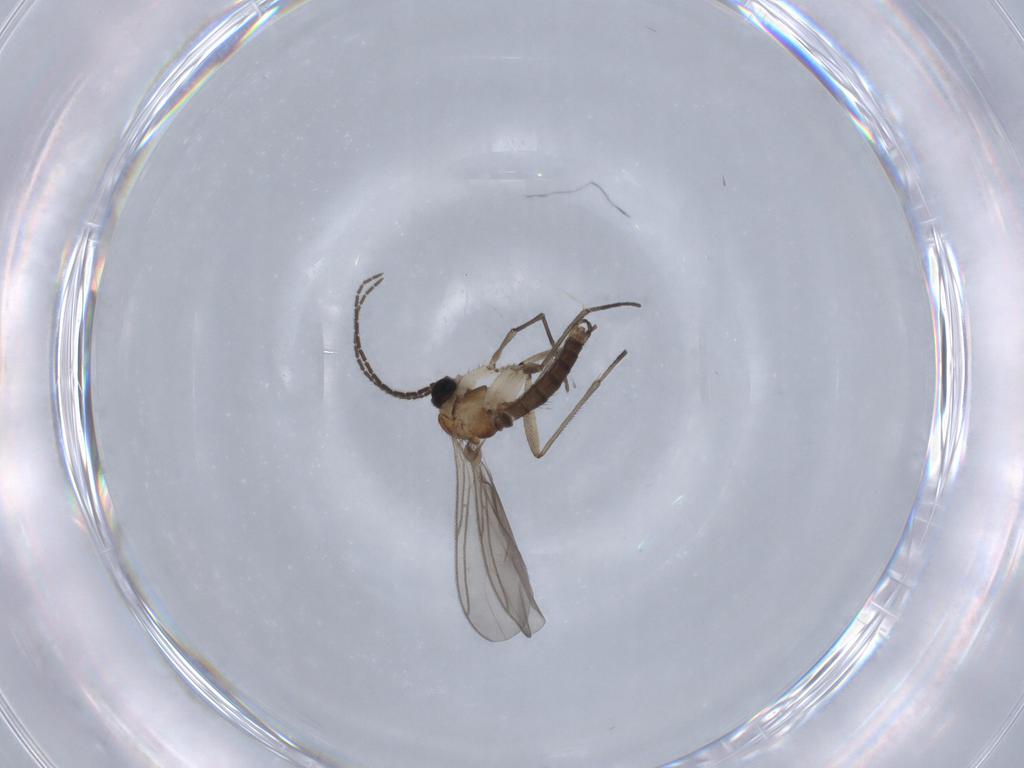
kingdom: Animalia
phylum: Arthropoda
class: Insecta
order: Diptera
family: Sciaridae
